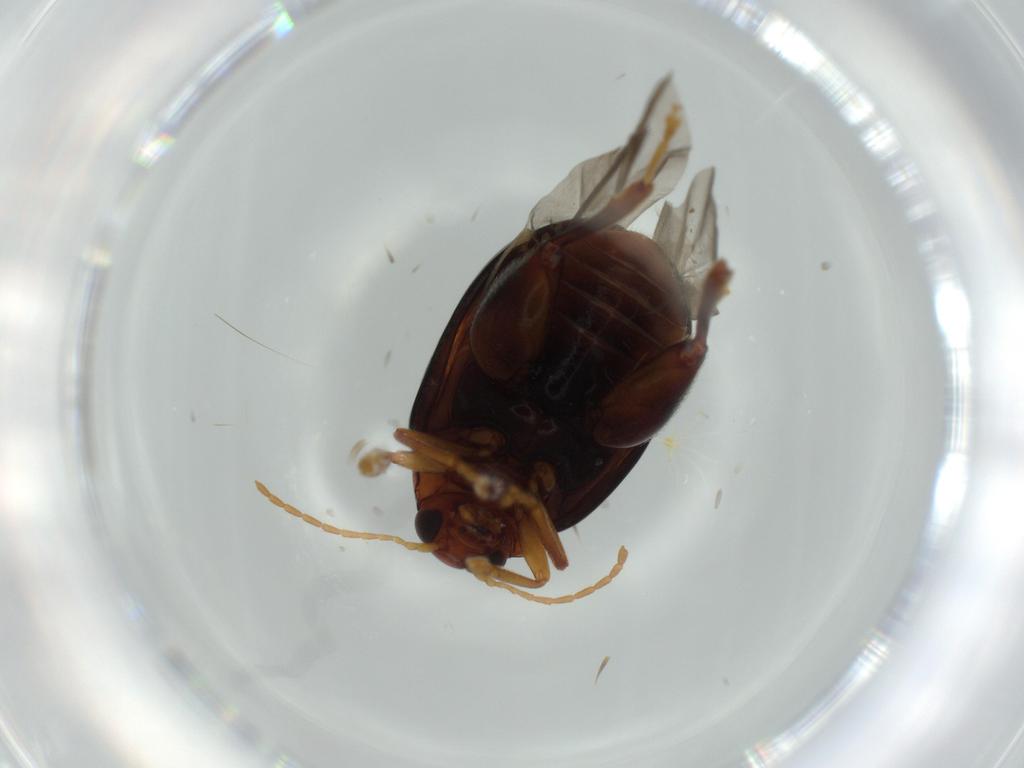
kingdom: Animalia
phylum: Arthropoda
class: Insecta
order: Coleoptera
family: Chrysomelidae
